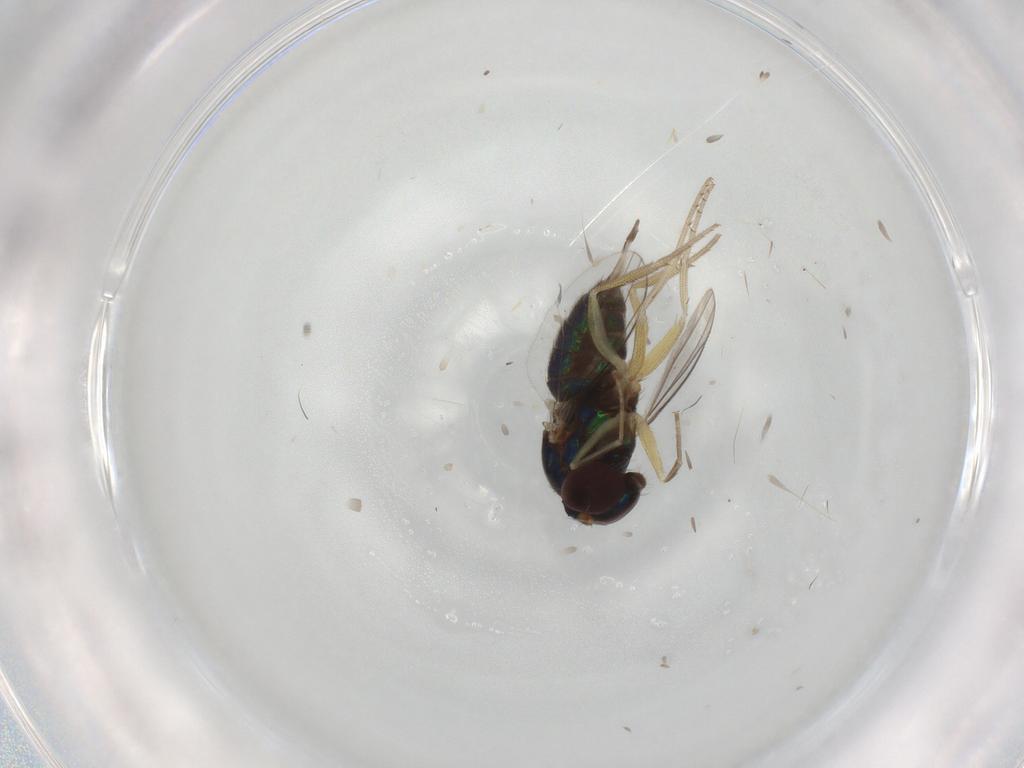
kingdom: Animalia
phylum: Arthropoda
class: Insecta
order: Diptera
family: Dolichopodidae
